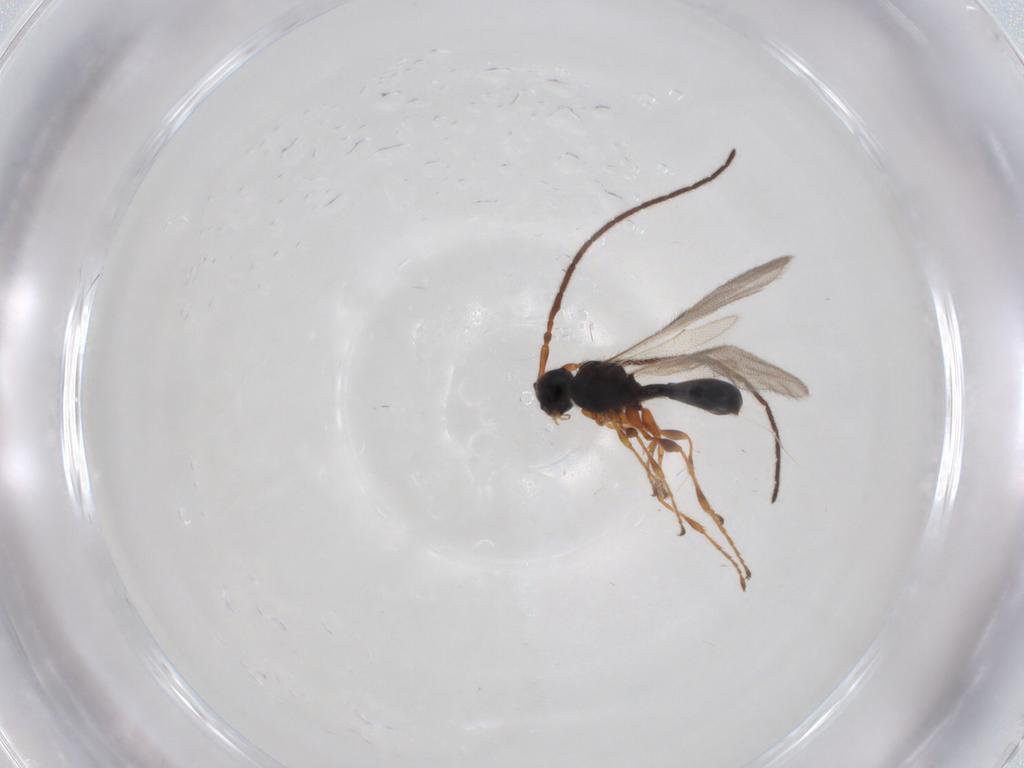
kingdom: Animalia
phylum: Arthropoda
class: Insecta
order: Hymenoptera
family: Diapriidae
